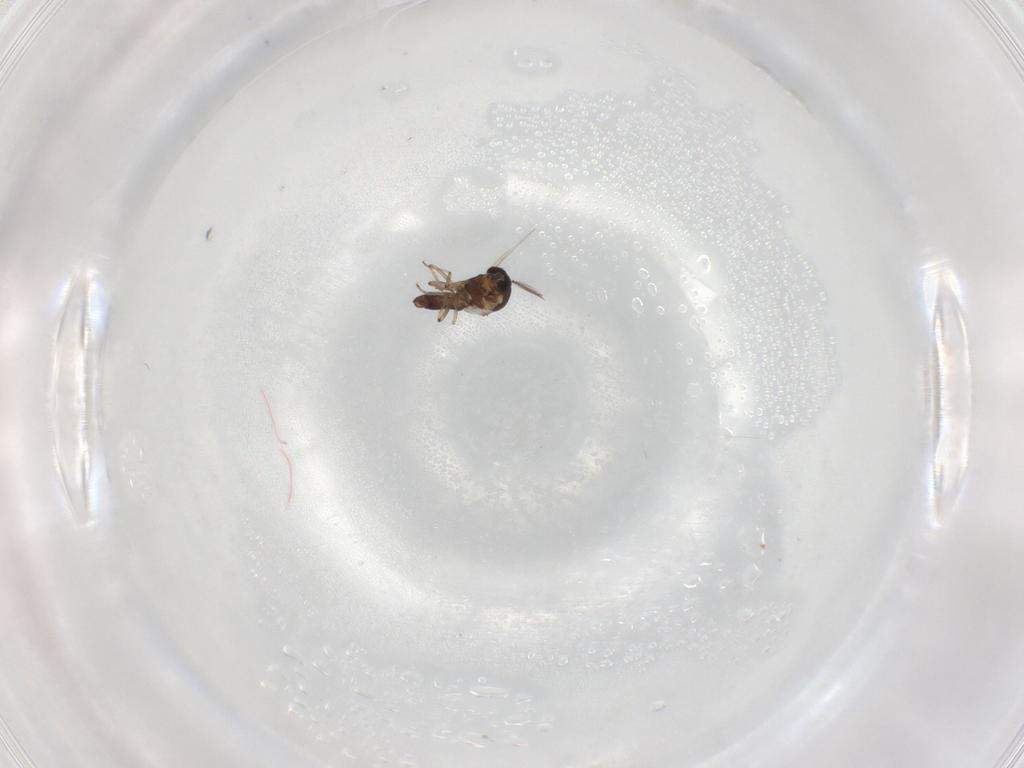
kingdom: Animalia
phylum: Arthropoda
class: Insecta
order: Diptera
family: Ceratopogonidae
